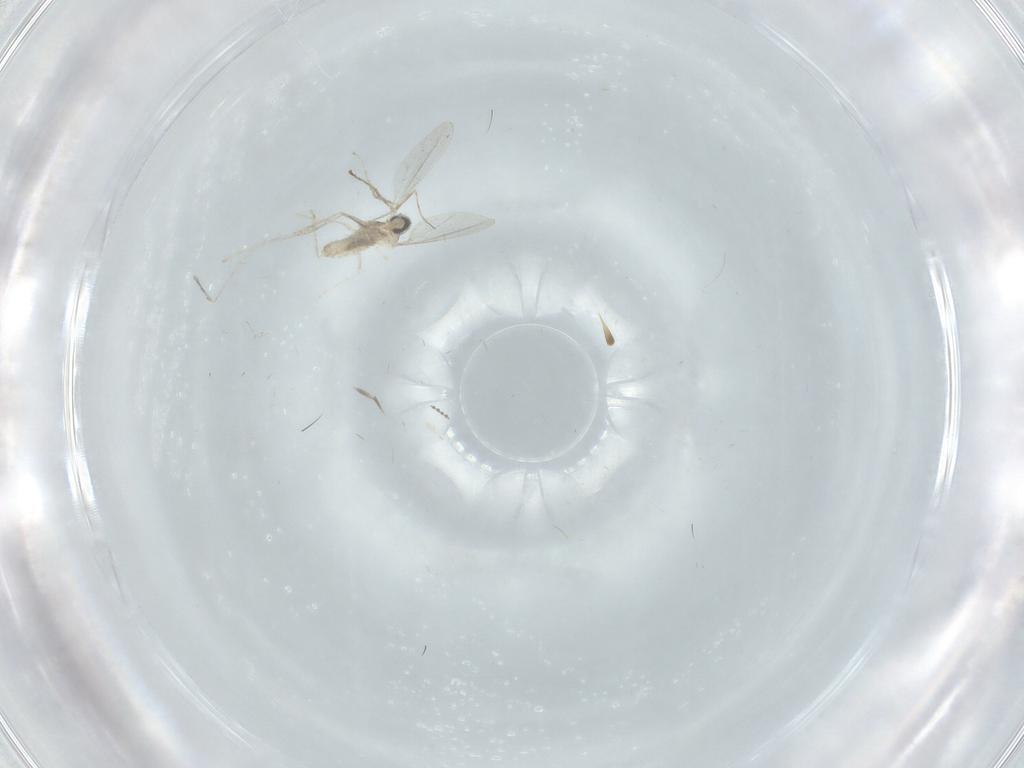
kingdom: Animalia
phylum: Arthropoda
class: Insecta
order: Diptera
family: Cecidomyiidae
